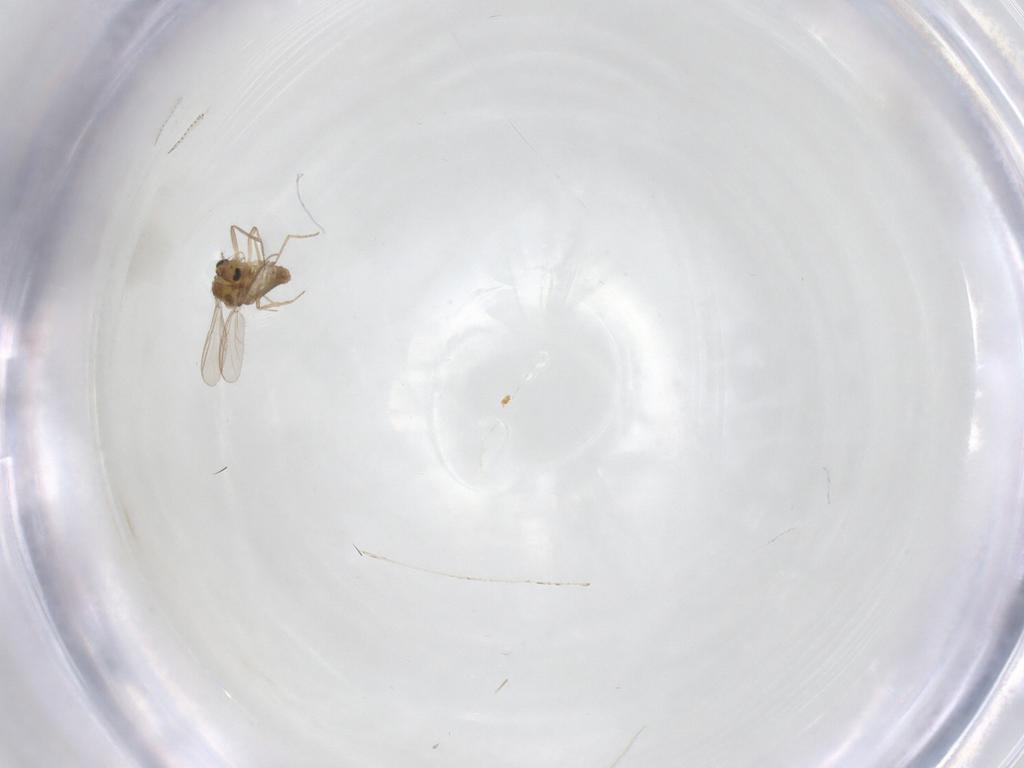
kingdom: Animalia
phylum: Arthropoda
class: Insecta
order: Diptera
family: Chironomidae
